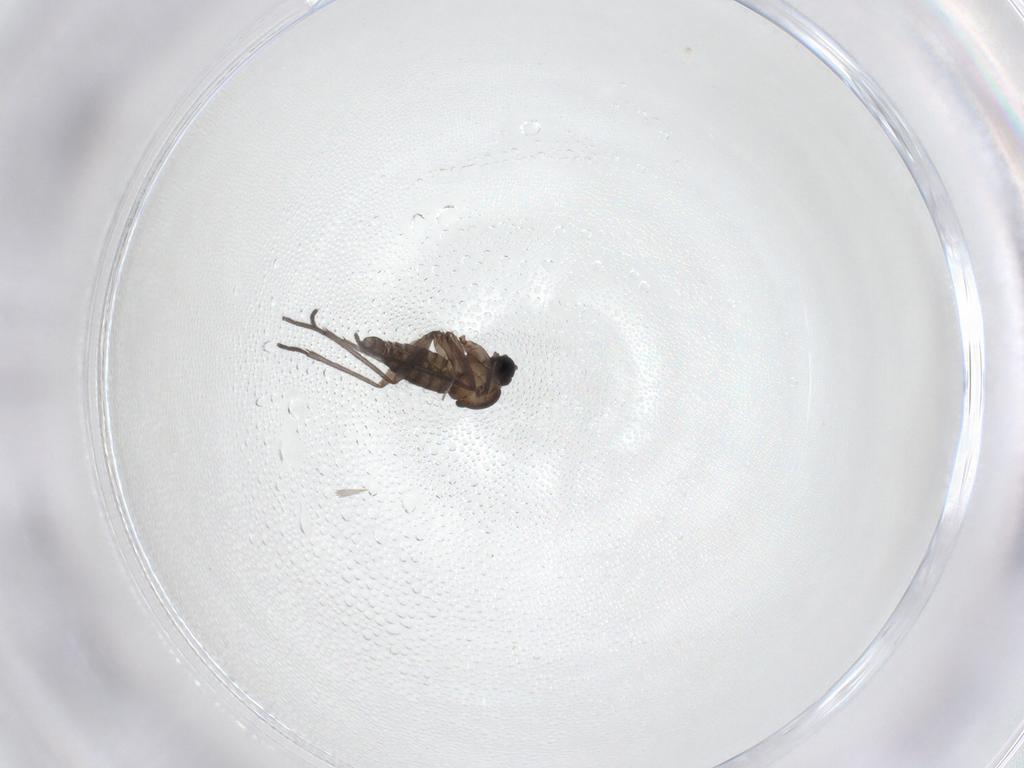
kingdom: Animalia
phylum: Arthropoda
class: Insecta
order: Diptera
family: Sciaridae
